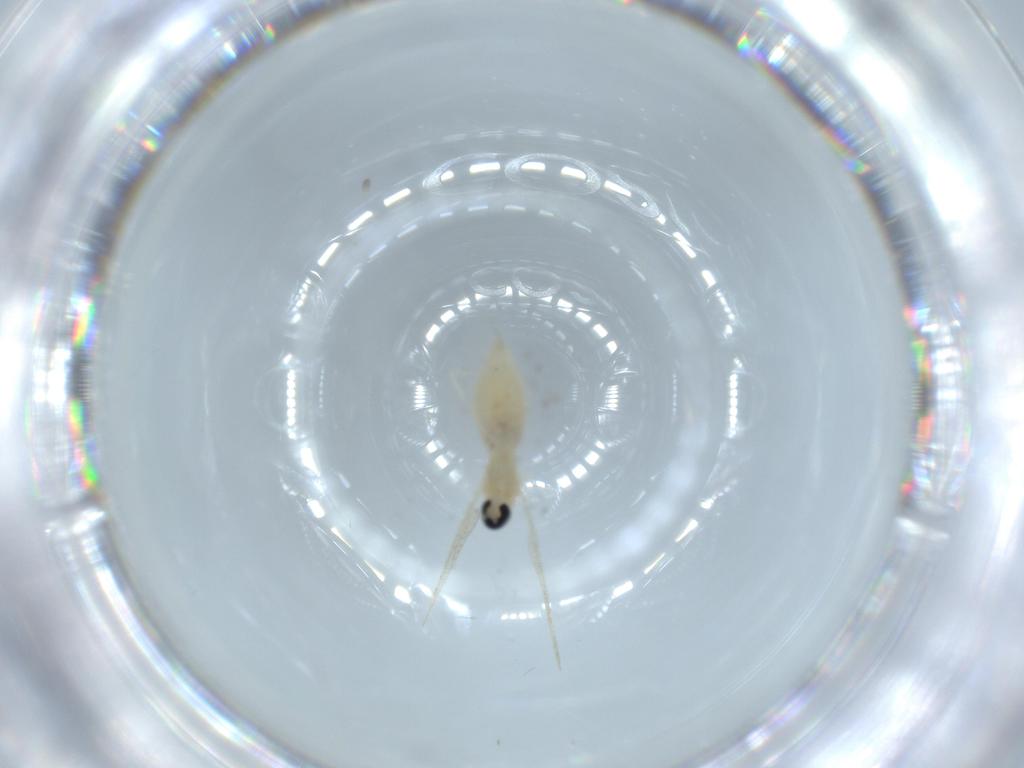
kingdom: Animalia
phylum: Arthropoda
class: Insecta
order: Diptera
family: Cecidomyiidae
